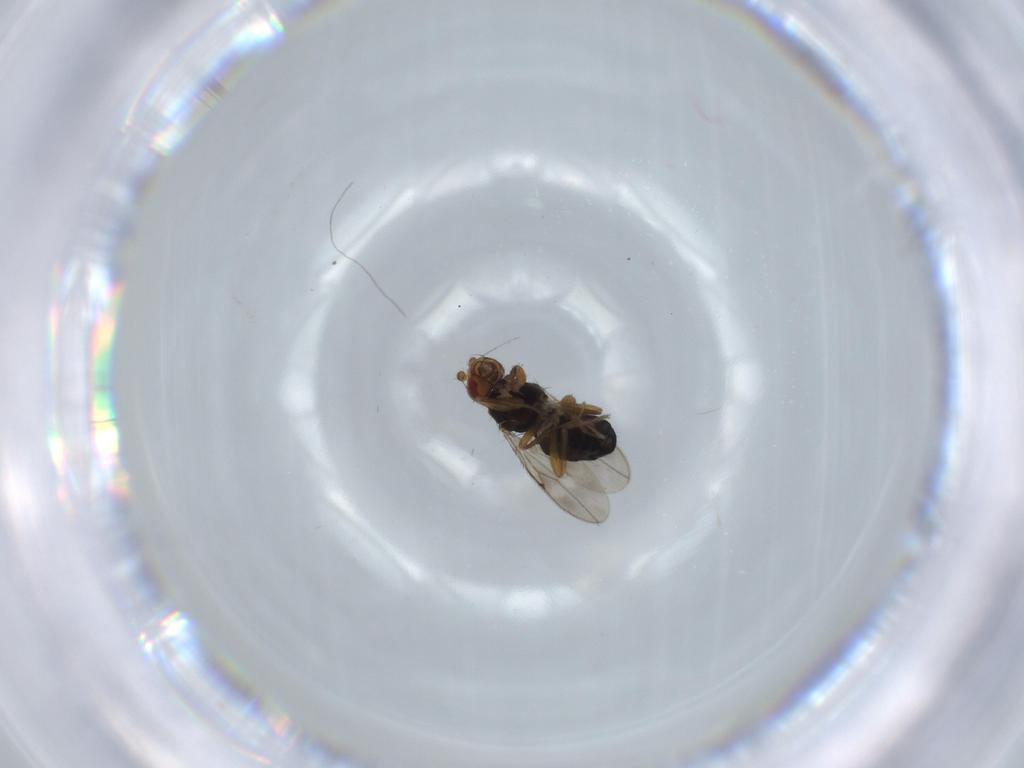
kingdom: Animalia
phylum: Arthropoda
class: Insecta
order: Diptera
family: Sphaeroceridae
